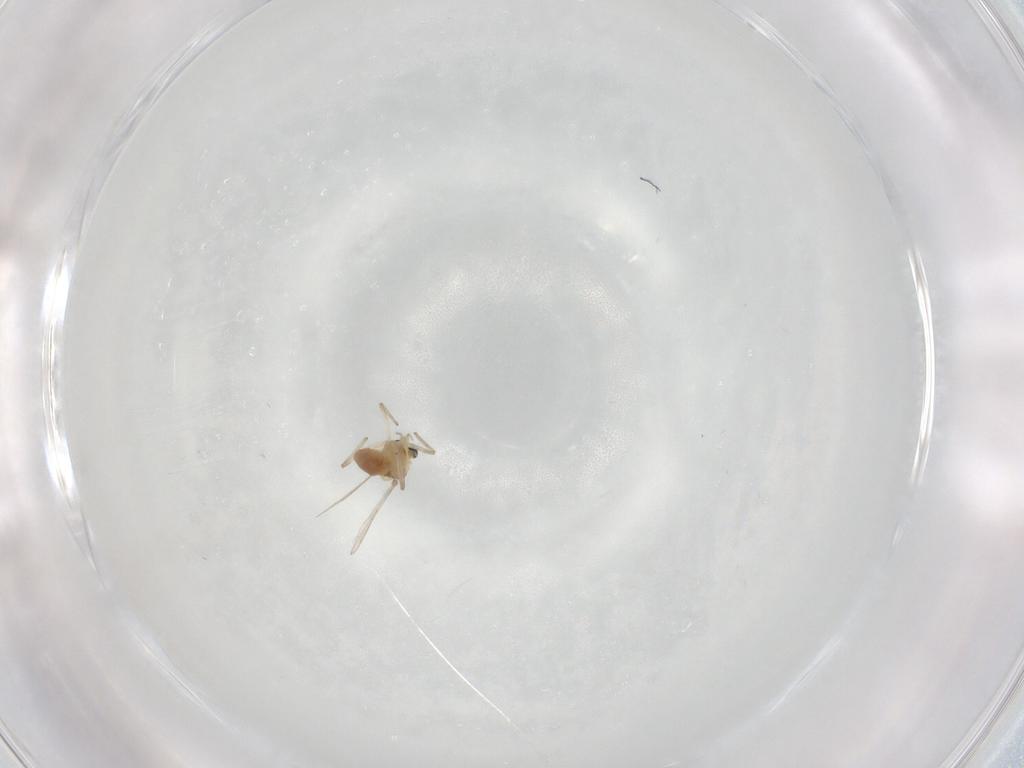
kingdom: Animalia
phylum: Arthropoda
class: Insecta
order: Diptera
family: Chironomidae
